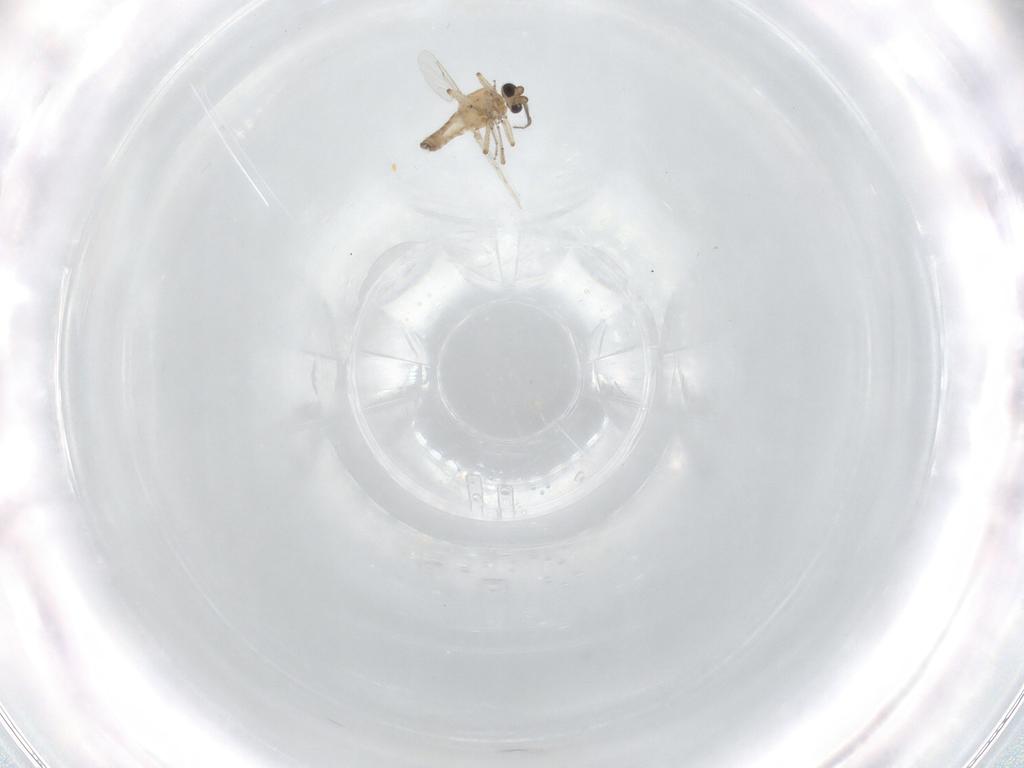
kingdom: Animalia
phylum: Arthropoda
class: Insecta
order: Diptera
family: Ceratopogonidae
